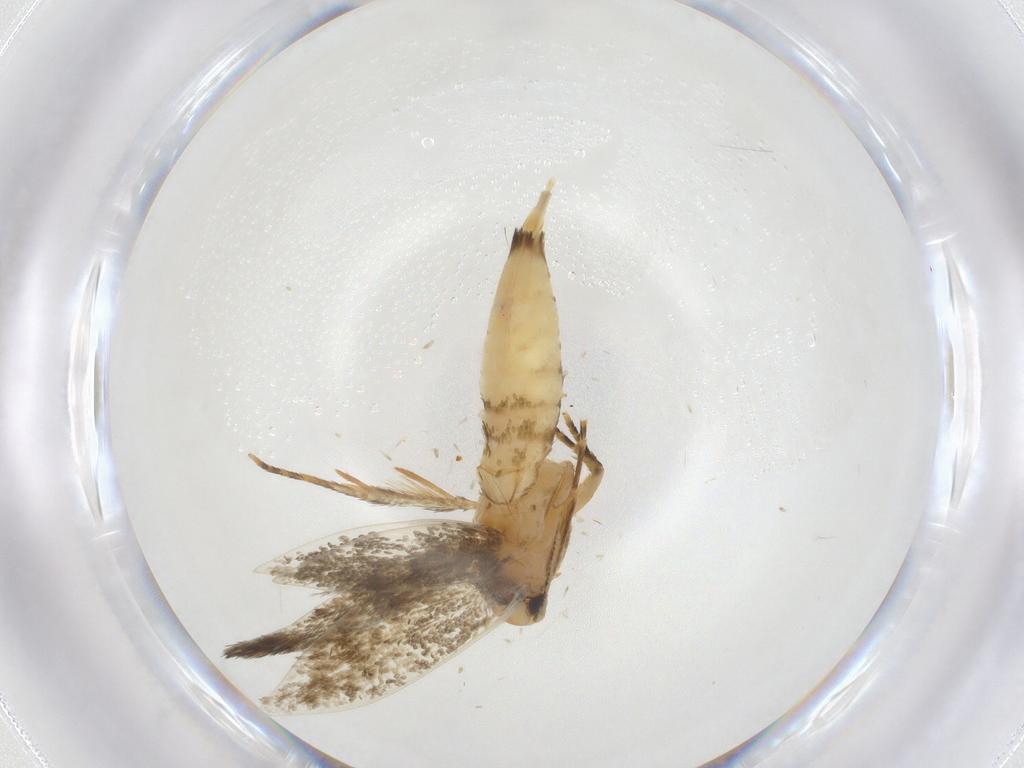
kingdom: Animalia
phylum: Arthropoda
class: Insecta
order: Lepidoptera
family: Tineidae
